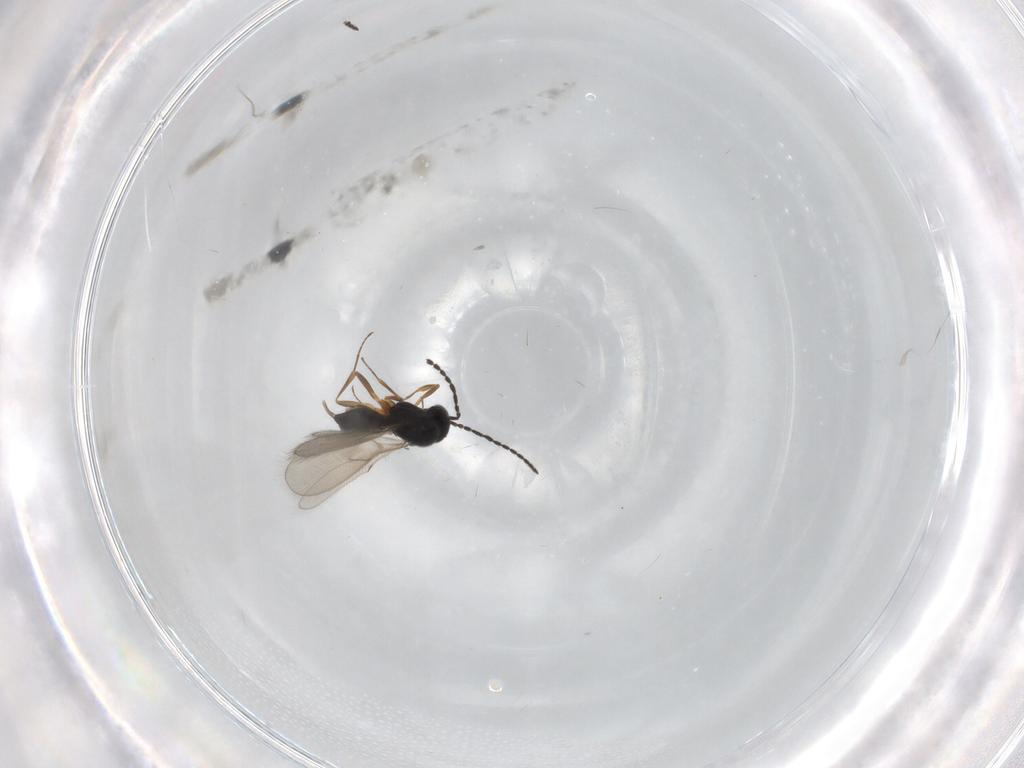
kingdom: Animalia
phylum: Arthropoda
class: Insecta
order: Hymenoptera
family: Scelionidae
